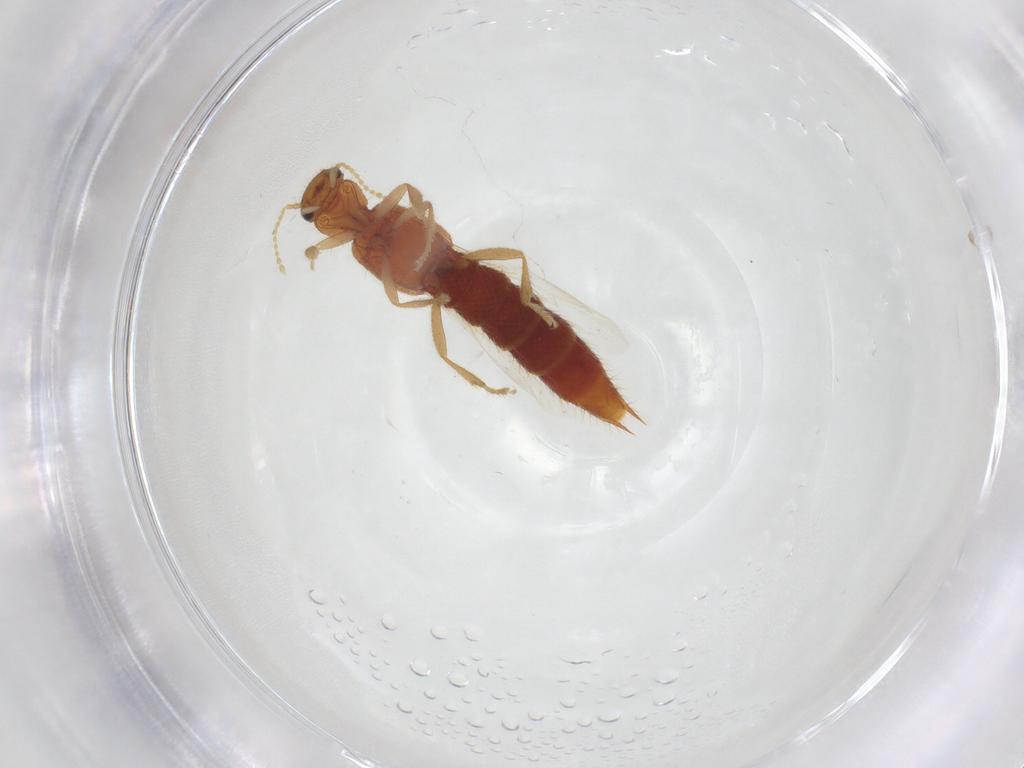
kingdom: Animalia
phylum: Arthropoda
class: Insecta
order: Coleoptera
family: Staphylinidae
